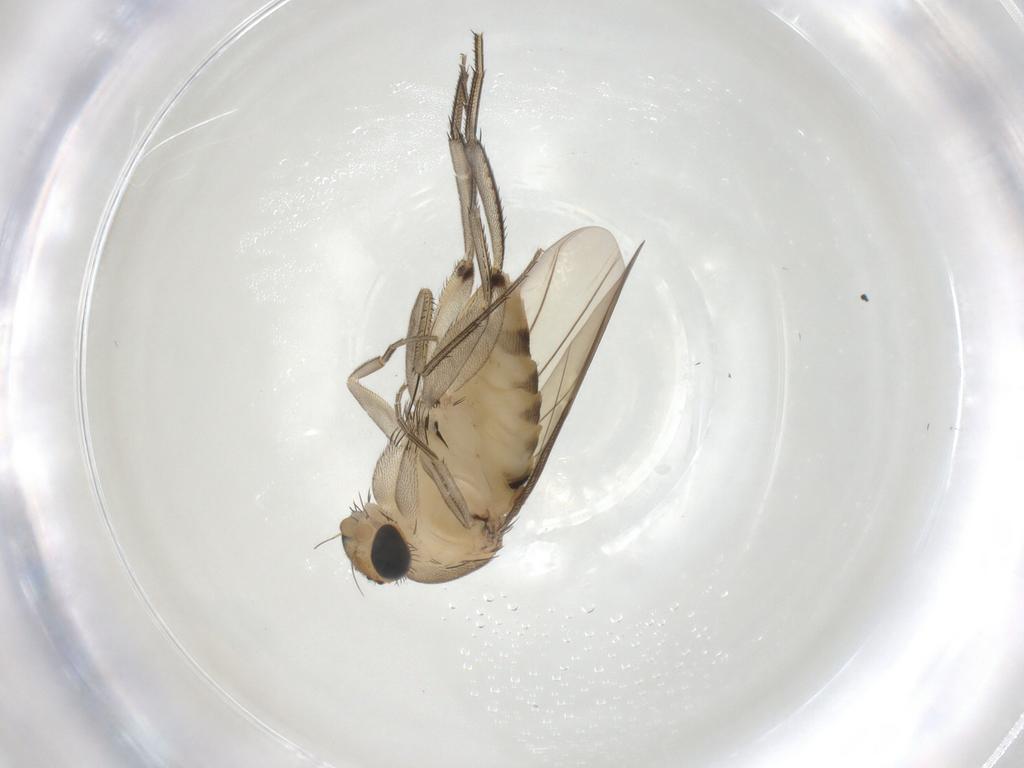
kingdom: Animalia
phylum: Arthropoda
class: Insecta
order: Diptera
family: Phoridae
